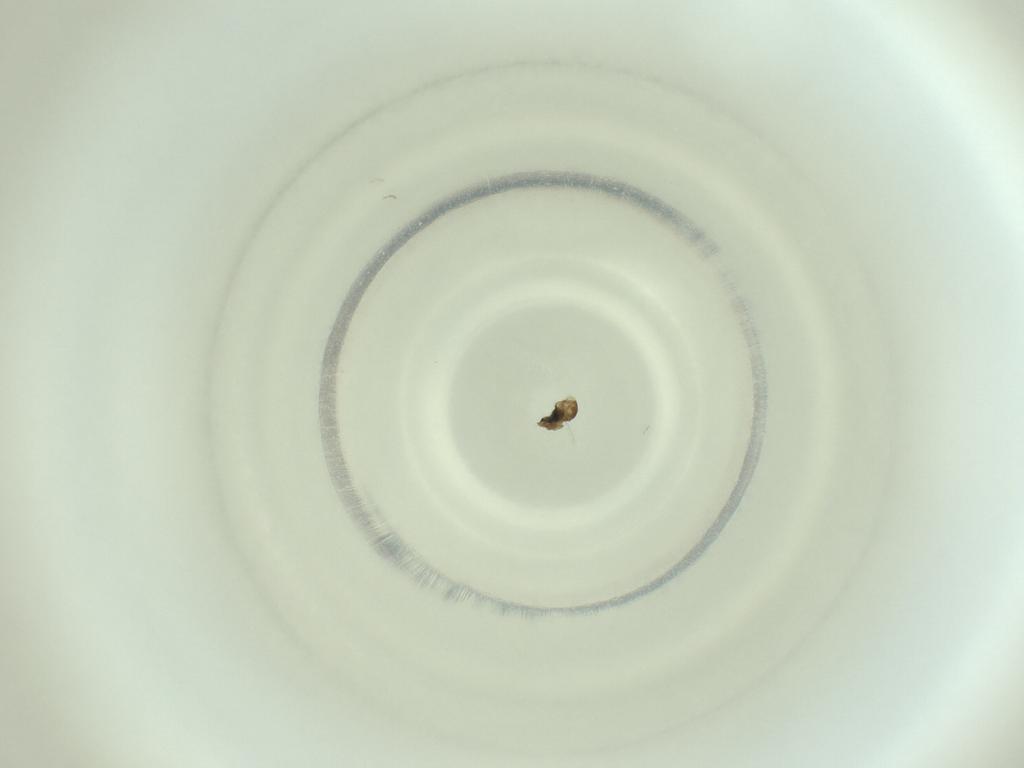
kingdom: Animalia
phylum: Arthropoda
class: Insecta
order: Diptera
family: Cecidomyiidae
